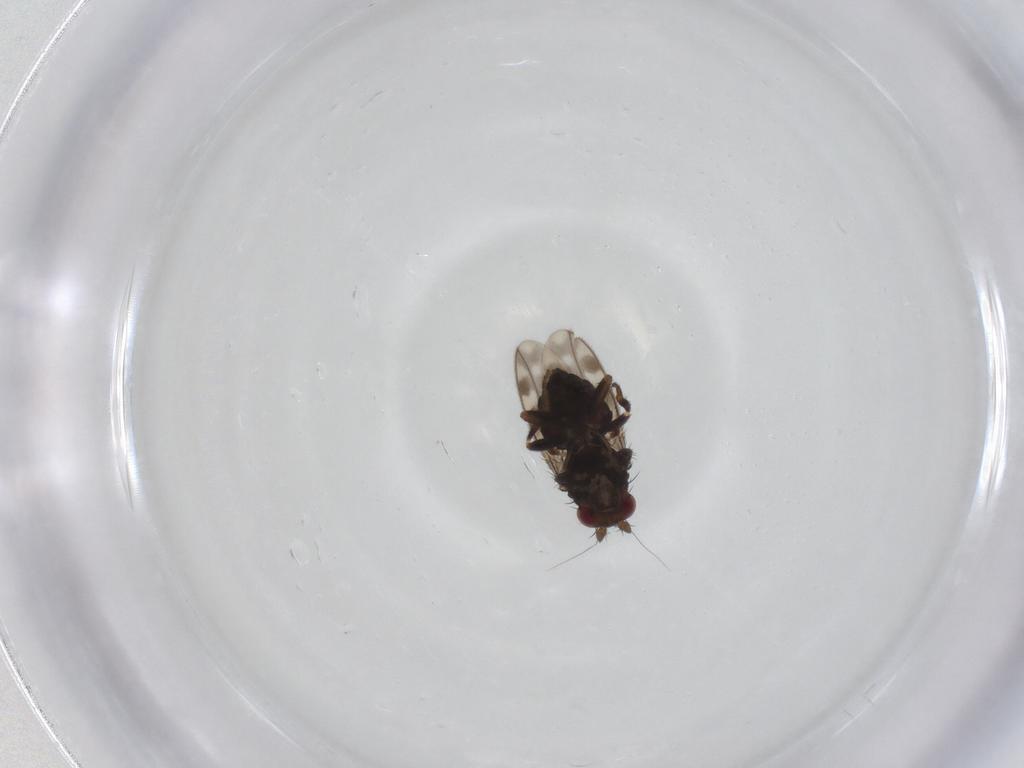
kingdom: Animalia
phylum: Arthropoda
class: Insecta
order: Diptera
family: Sphaeroceridae
